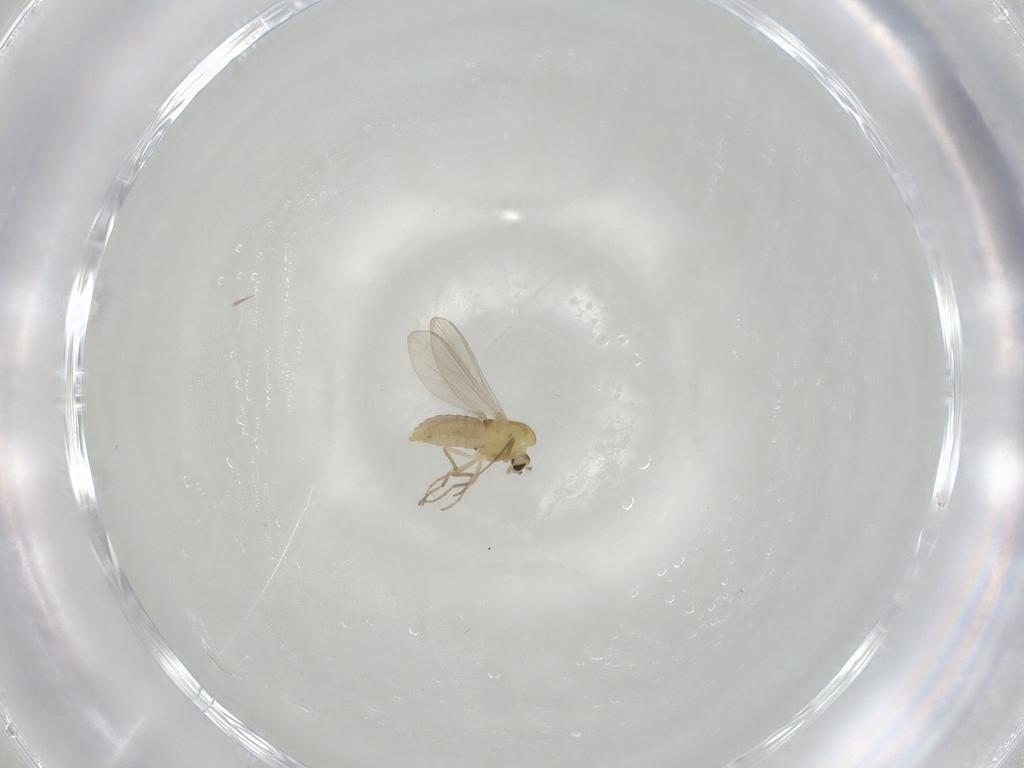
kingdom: Animalia
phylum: Arthropoda
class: Insecta
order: Diptera
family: Chironomidae
